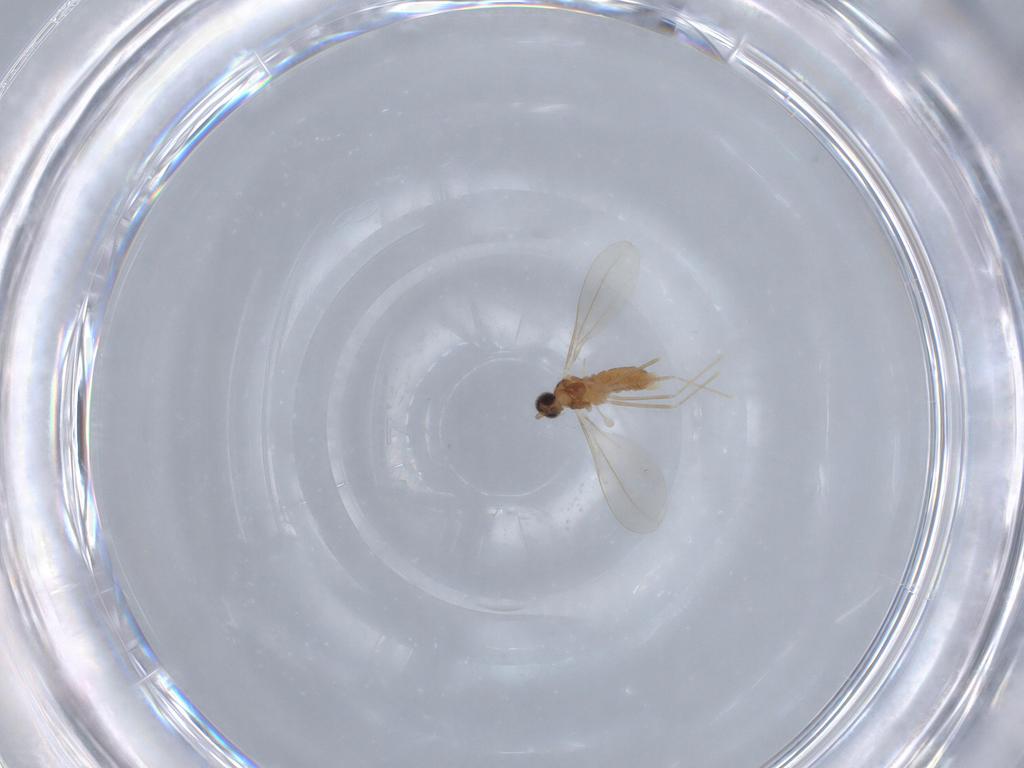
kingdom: Animalia
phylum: Arthropoda
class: Insecta
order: Diptera
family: Cecidomyiidae
